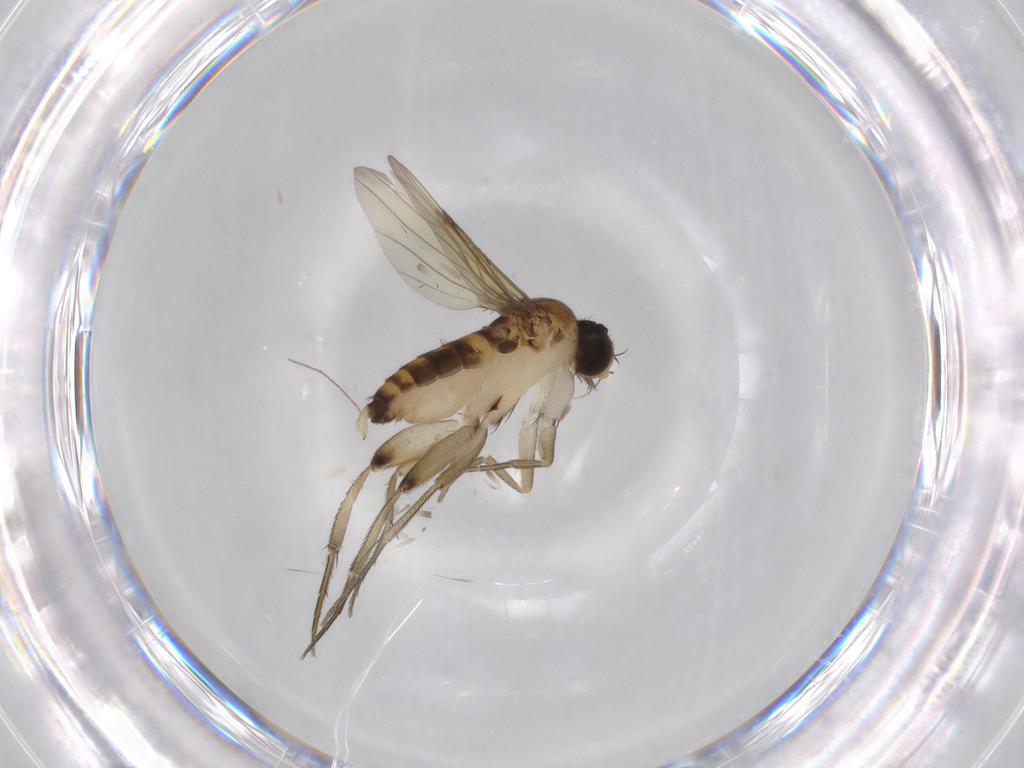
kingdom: Animalia
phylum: Arthropoda
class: Insecta
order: Diptera
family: Phoridae
